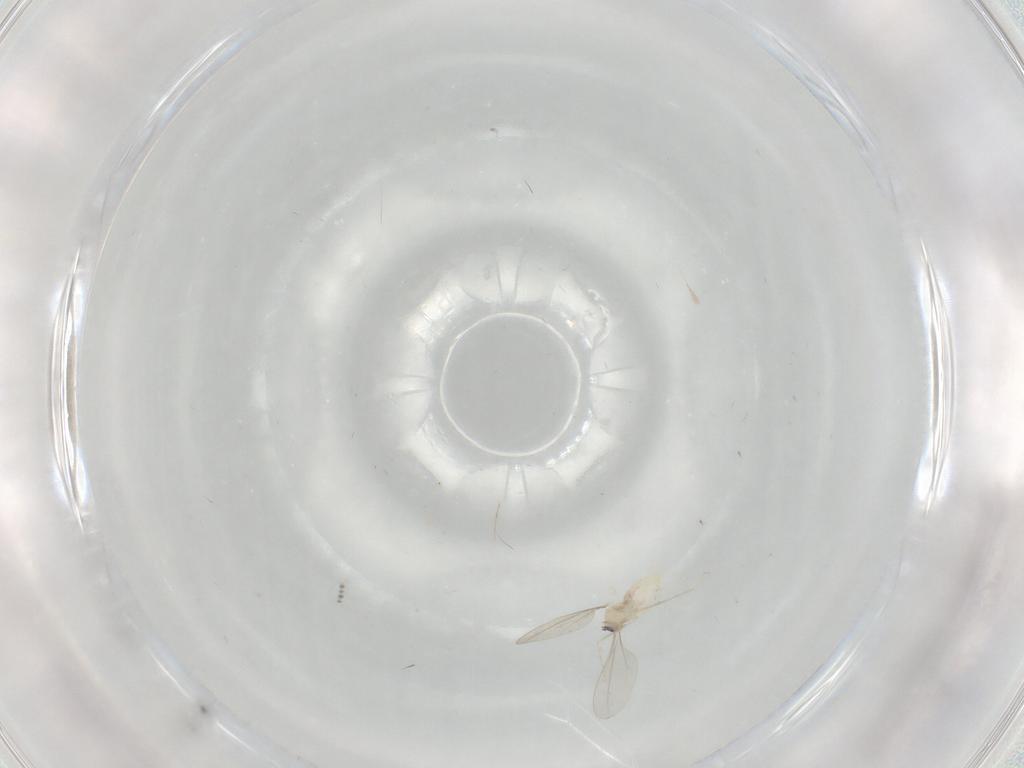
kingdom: Animalia
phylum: Arthropoda
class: Insecta
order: Diptera
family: Cecidomyiidae
